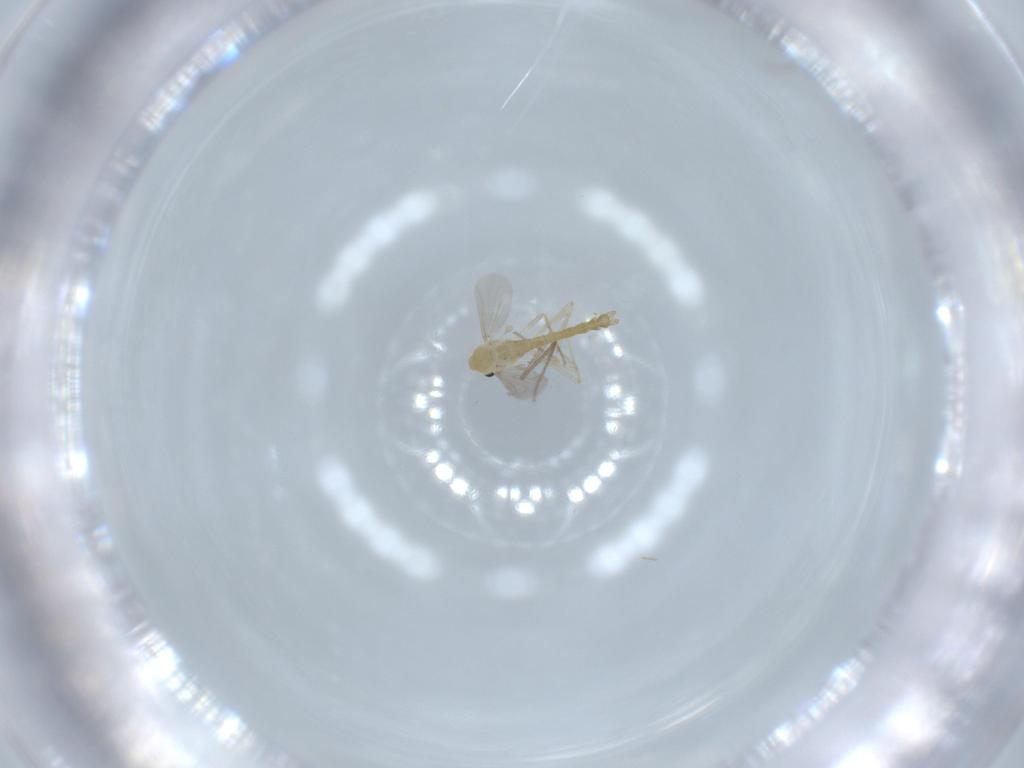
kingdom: Animalia
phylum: Arthropoda
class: Insecta
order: Diptera
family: Chironomidae
